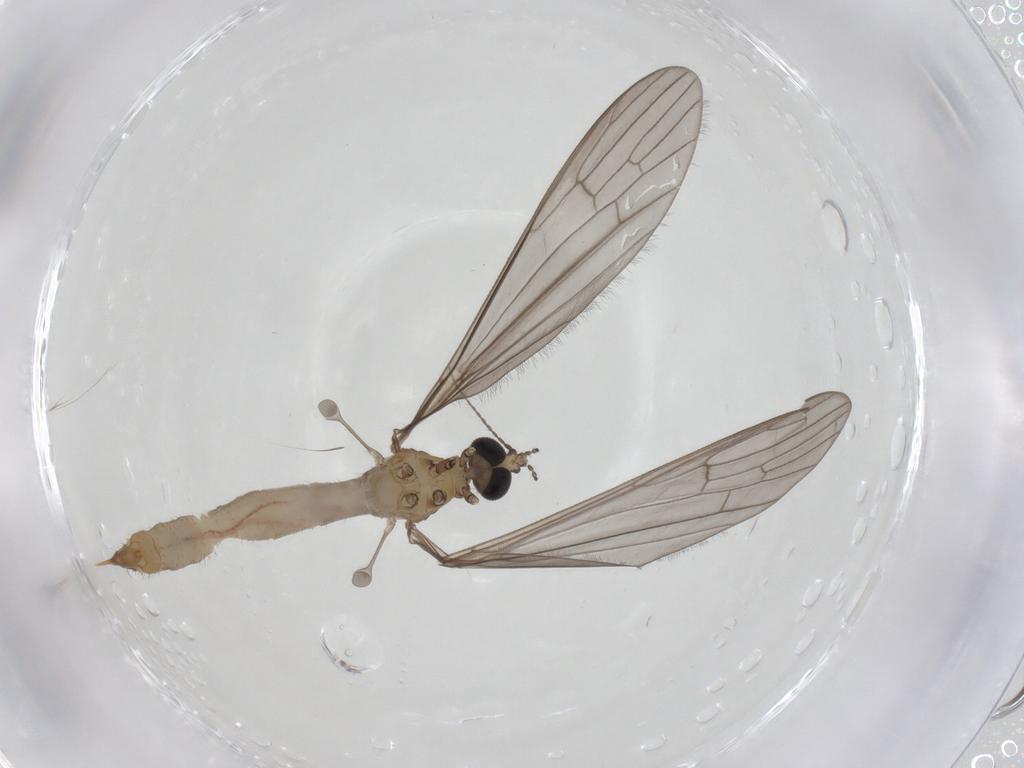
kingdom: Animalia
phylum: Arthropoda
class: Insecta
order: Diptera
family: Limoniidae
